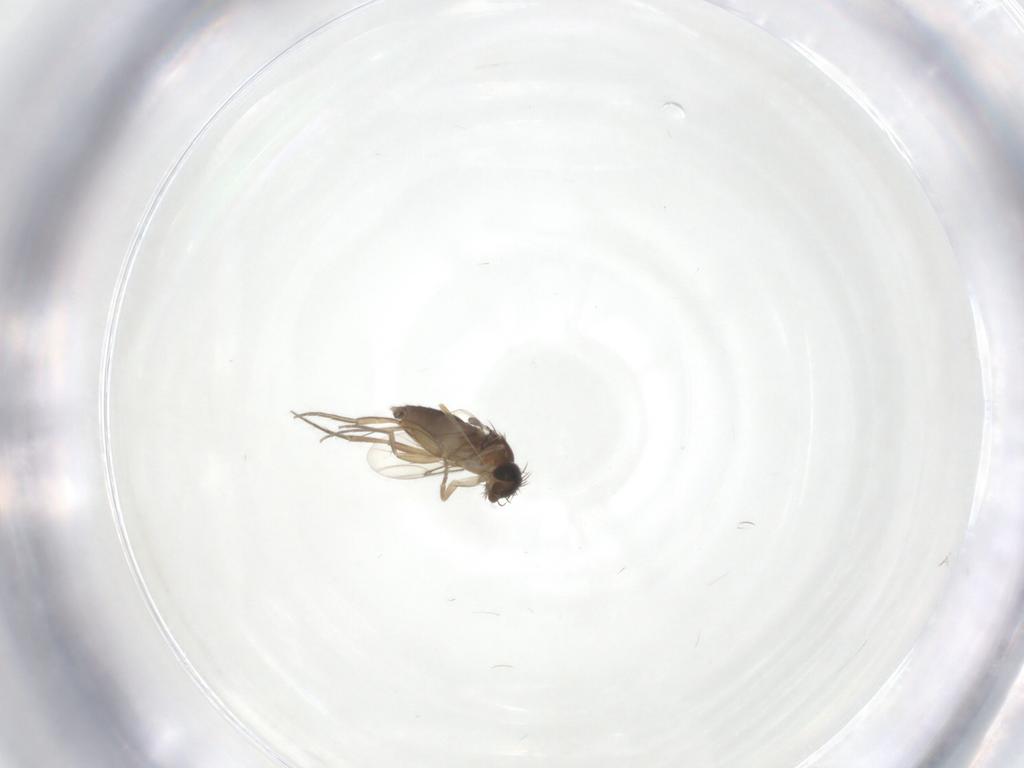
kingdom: Animalia
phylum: Arthropoda
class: Insecta
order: Diptera
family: Phoridae
